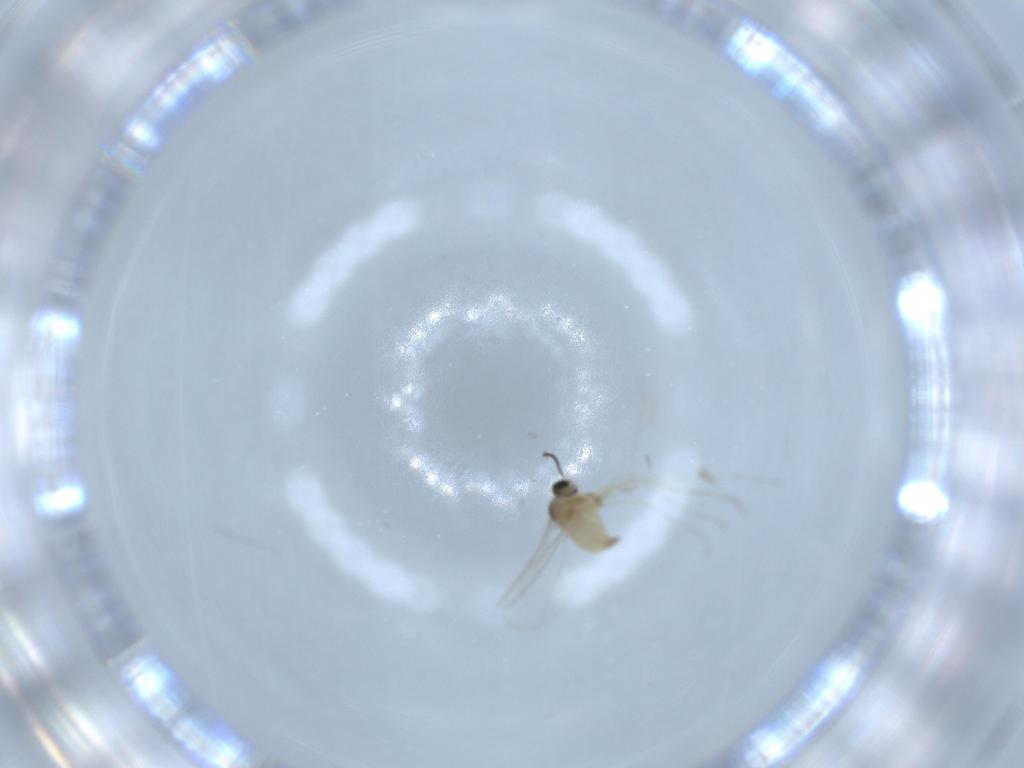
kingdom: Animalia
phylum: Arthropoda
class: Insecta
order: Diptera
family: Cecidomyiidae
